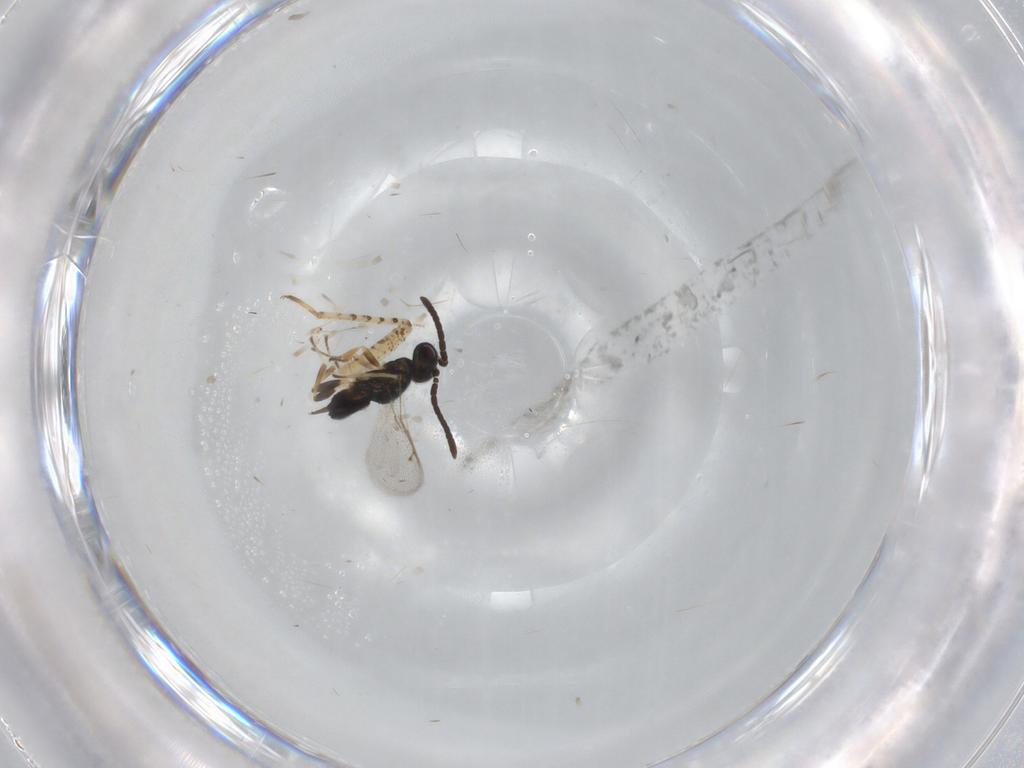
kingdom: Animalia
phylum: Arthropoda
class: Insecta
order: Hymenoptera
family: Eupelmidae
